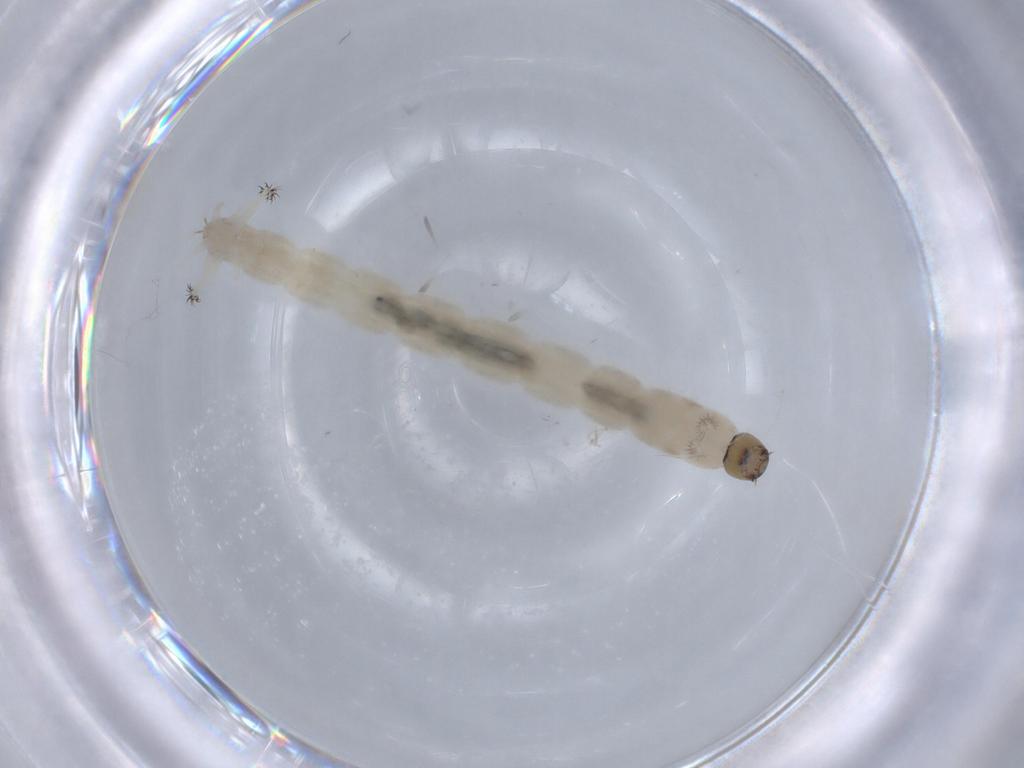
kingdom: Animalia
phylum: Arthropoda
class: Insecta
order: Diptera
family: Chironomidae
